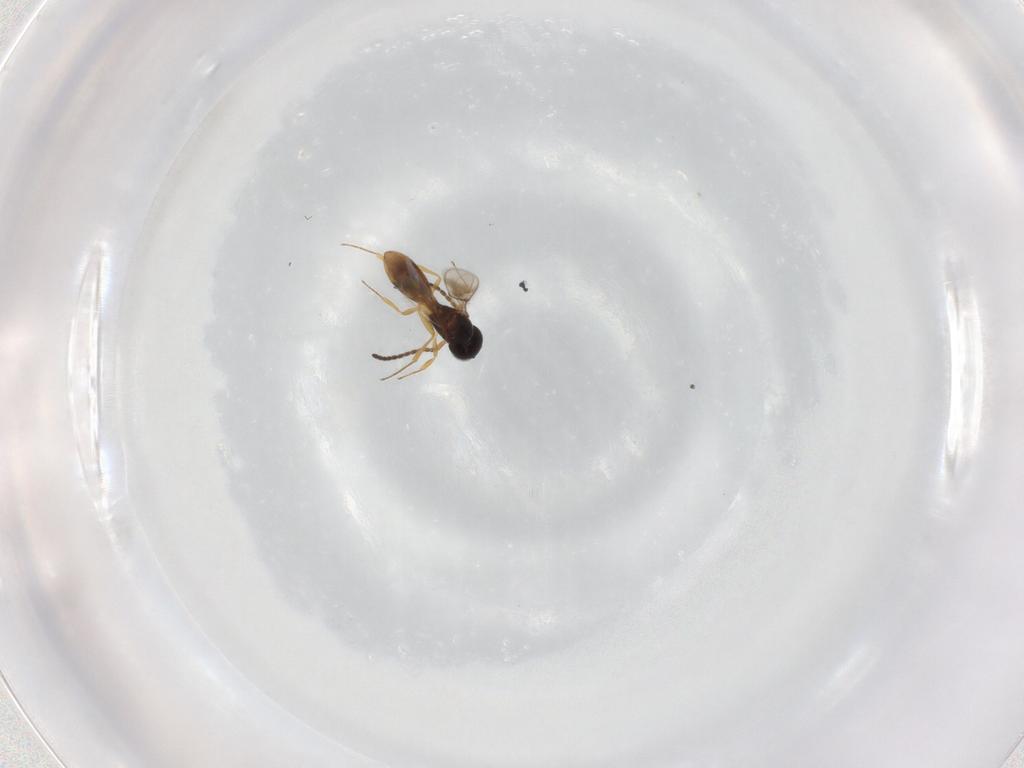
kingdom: Animalia
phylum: Arthropoda
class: Insecta
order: Hymenoptera
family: Scelionidae
